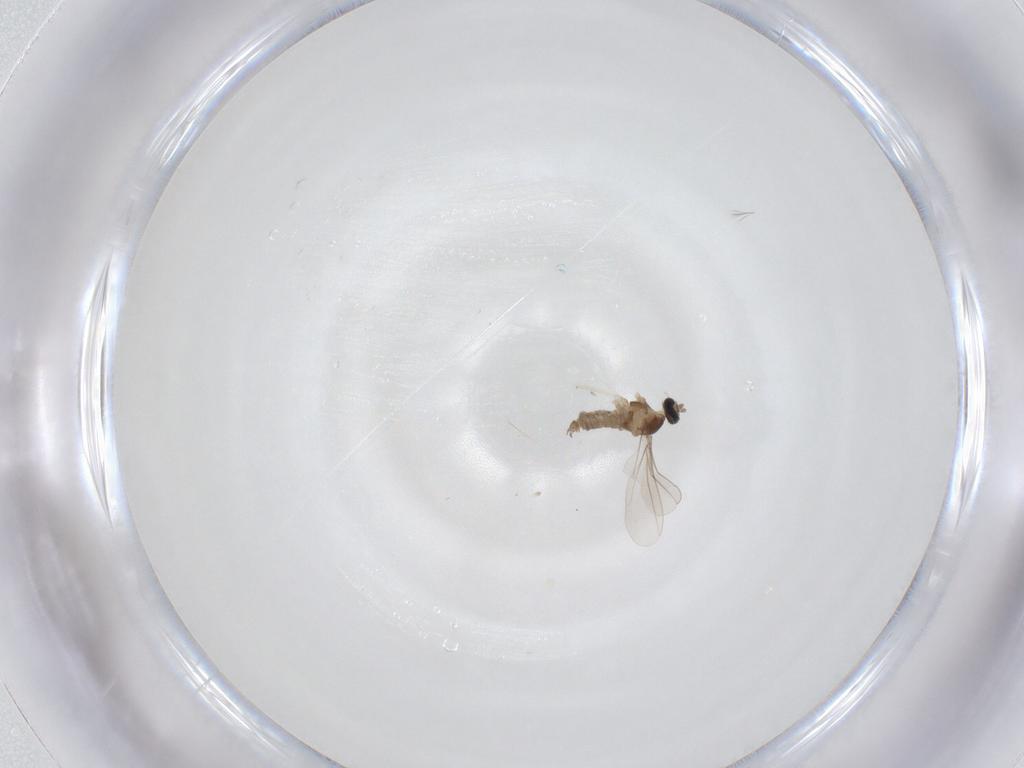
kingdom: Animalia
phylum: Arthropoda
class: Insecta
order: Diptera
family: Cecidomyiidae
